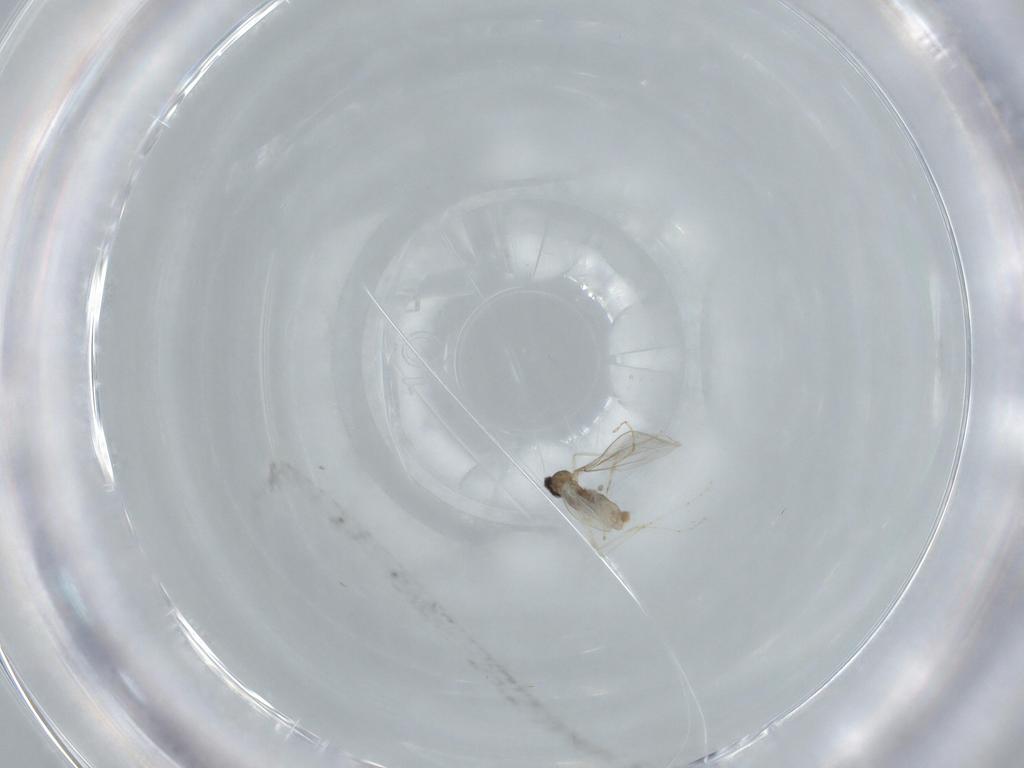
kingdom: Animalia
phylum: Arthropoda
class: Insecta
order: Diptera
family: Cecidomyiidae
